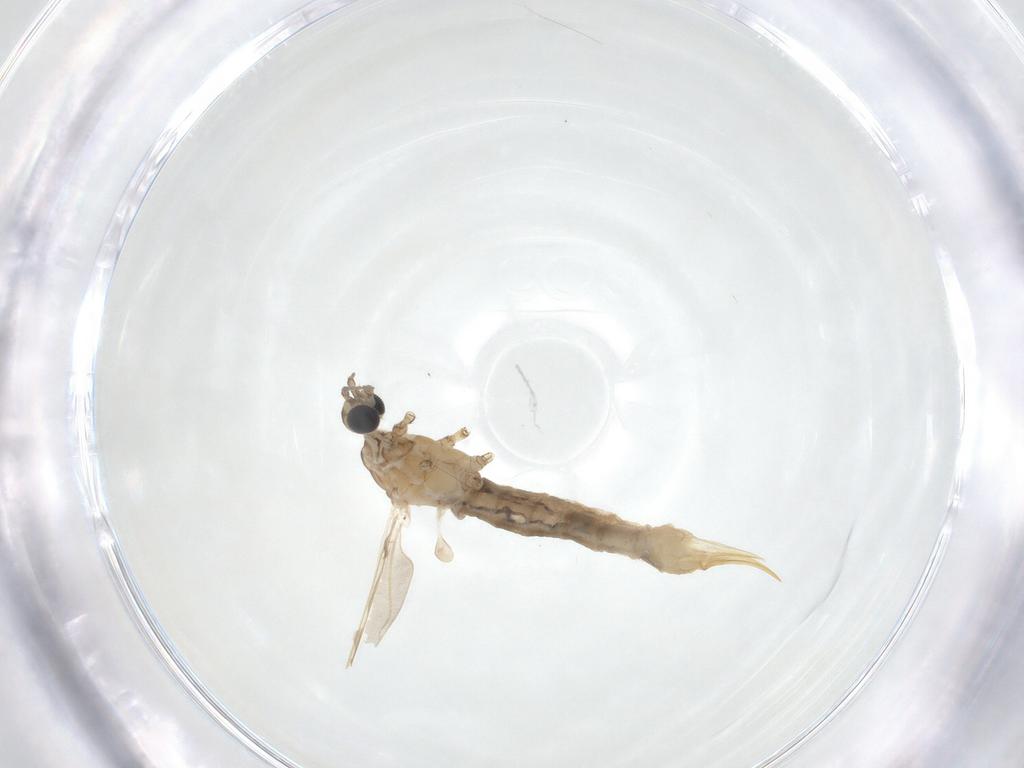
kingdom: Animalia
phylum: Arthropoda
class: Insecta
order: Diptera
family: Limoniidae
